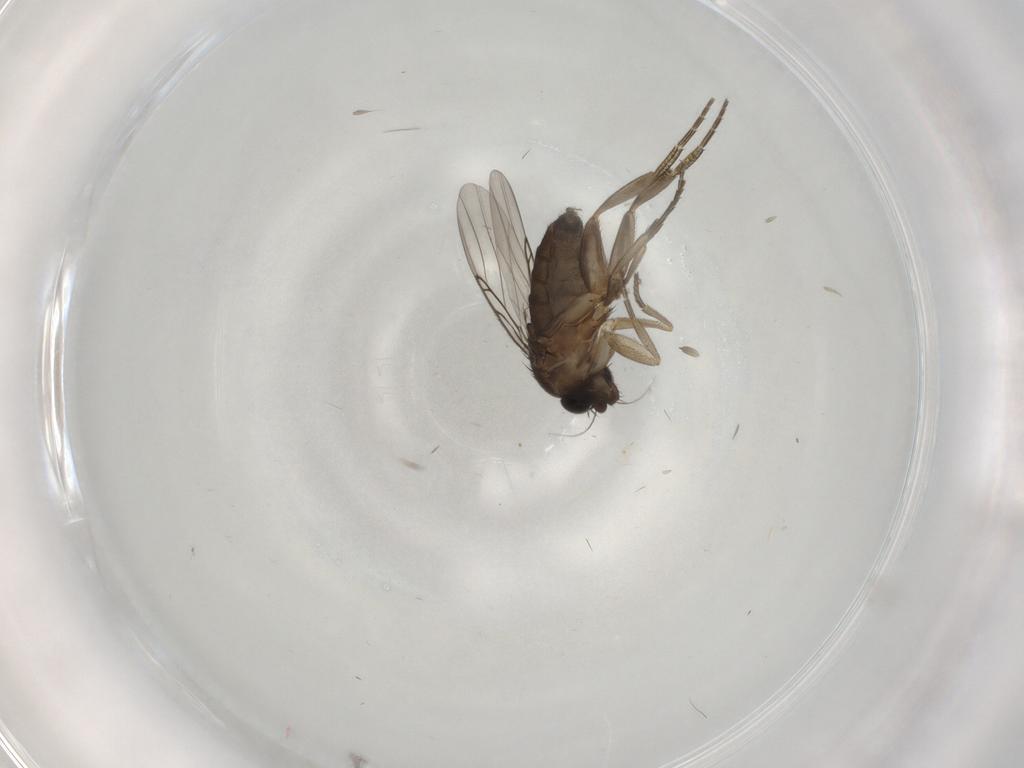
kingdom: Animalia
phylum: Arthropoda
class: Insecta
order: Diptera
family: Phoridae
